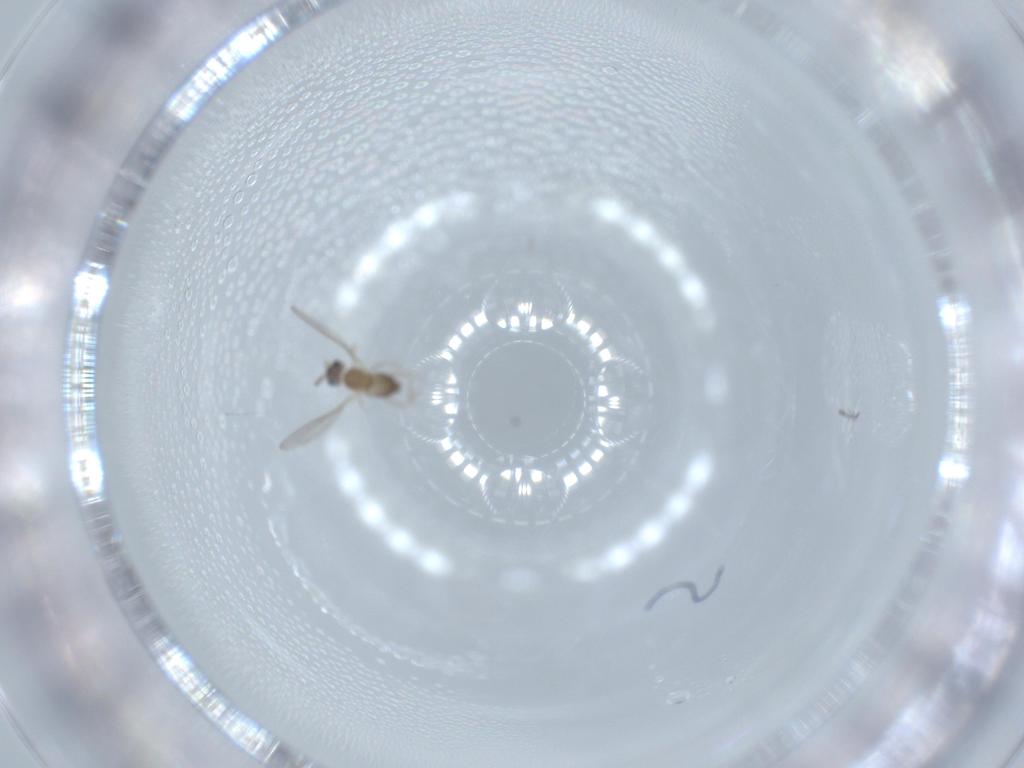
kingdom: Animalia
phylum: Arthropoda
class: Insecta
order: Diptera
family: Cecidomyiidae
